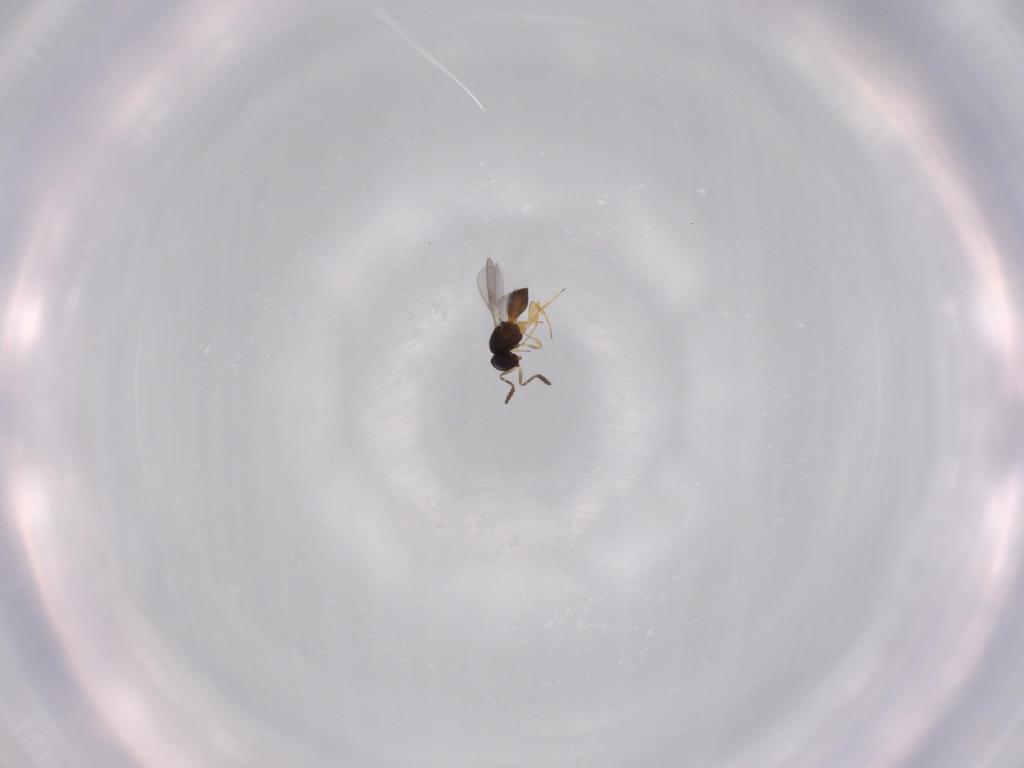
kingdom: Animalia
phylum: Arthropoda
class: Insecta
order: Hymenoptera
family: Scelionidae
